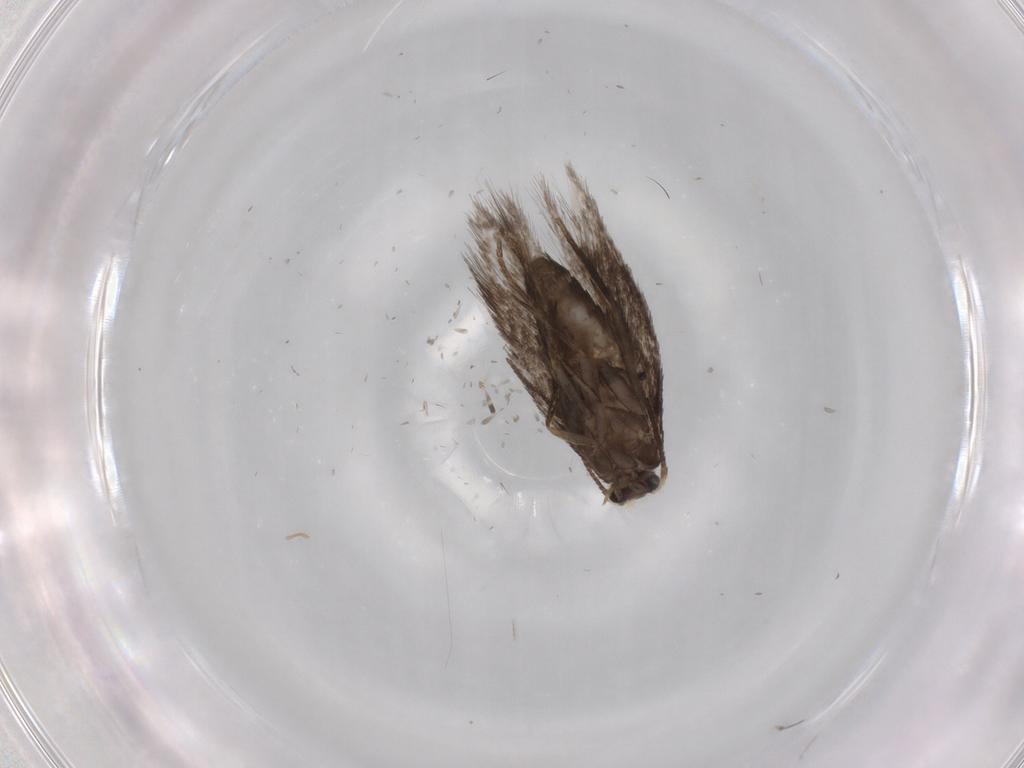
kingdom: Animalia
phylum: Arthropoda
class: Insecta
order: Lepidoptera
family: Nepticulidae
